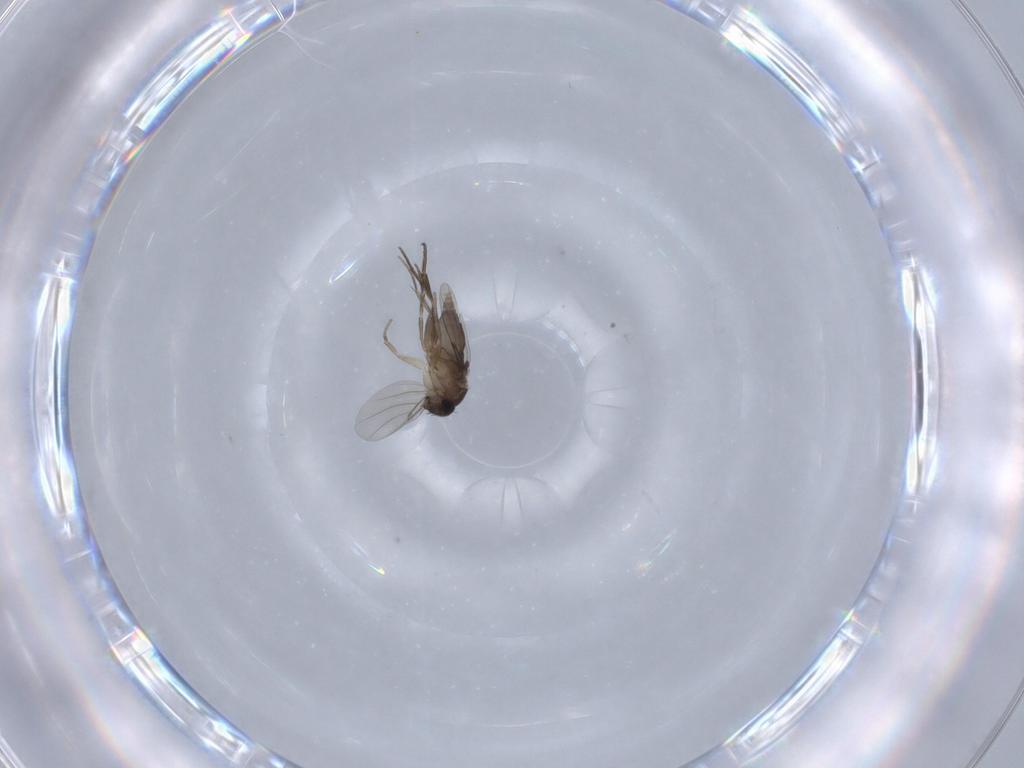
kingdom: Animalia
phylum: Arthropoda
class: Insecta
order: Diptera
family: Phoridae
